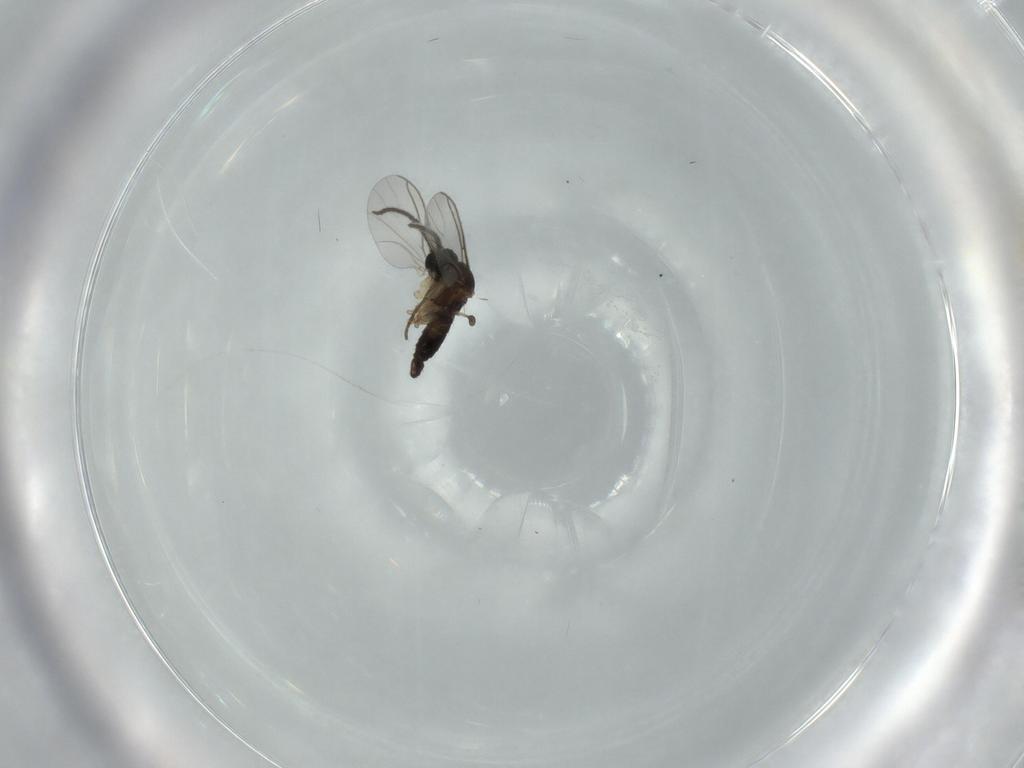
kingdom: Animalia
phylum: Arthropoda
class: Insecta
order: Diptera
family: Sciaridae
